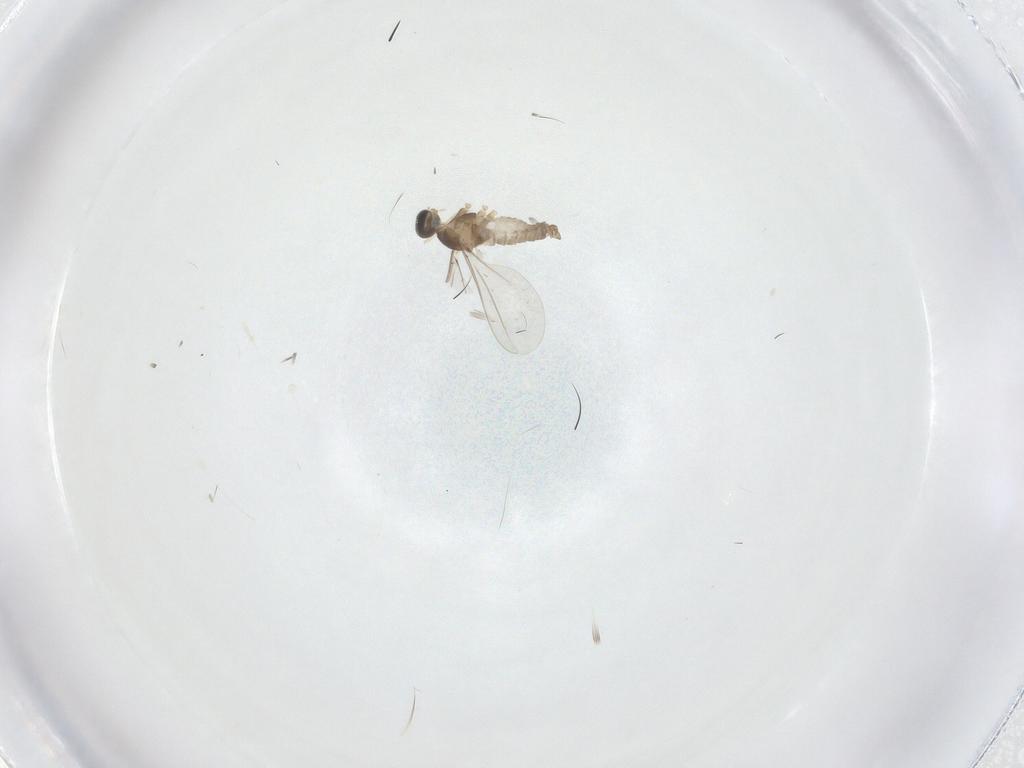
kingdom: Animalia
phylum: Arthropoda
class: Insecta
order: Diptera
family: Cecidomyiidae
